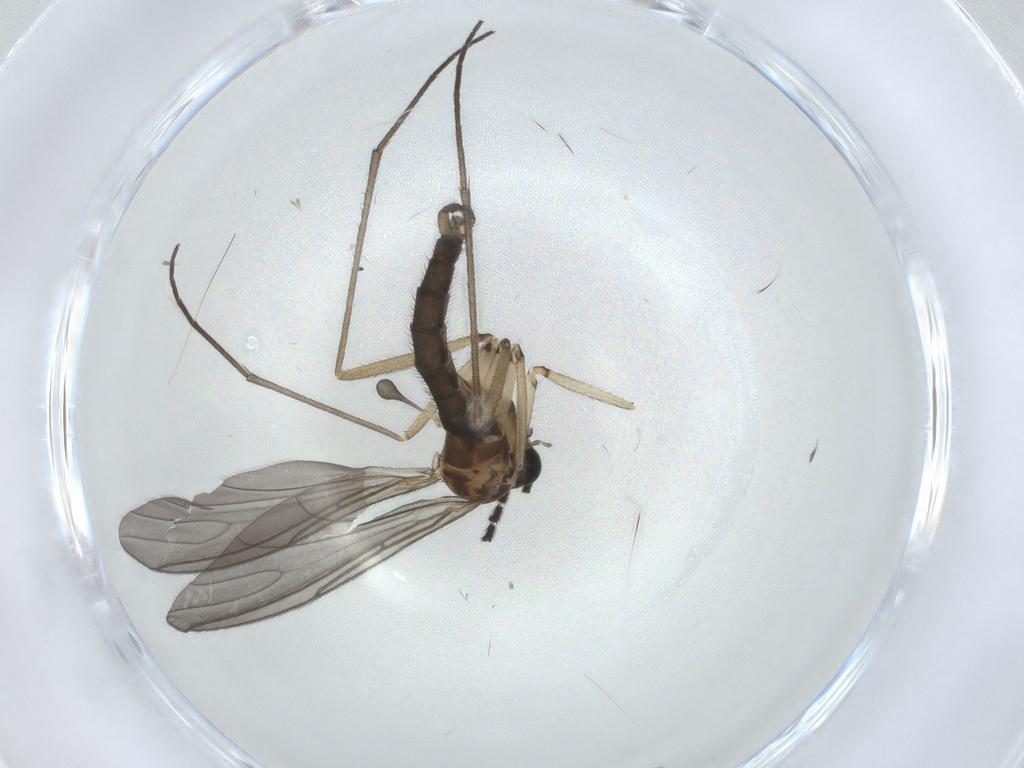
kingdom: Animalia
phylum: Arthropoda
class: Insecta
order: Diptera
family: Sciaridae
